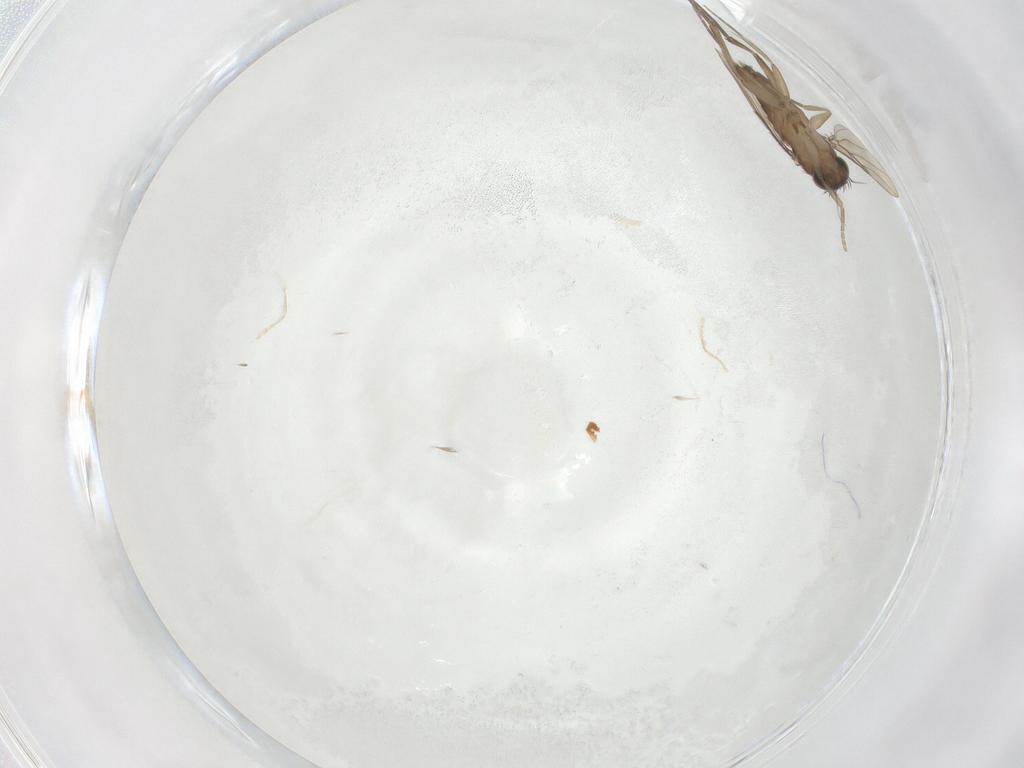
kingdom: Animalia
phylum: Arthropoda
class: Insecta
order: Diptera
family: Phoridae
